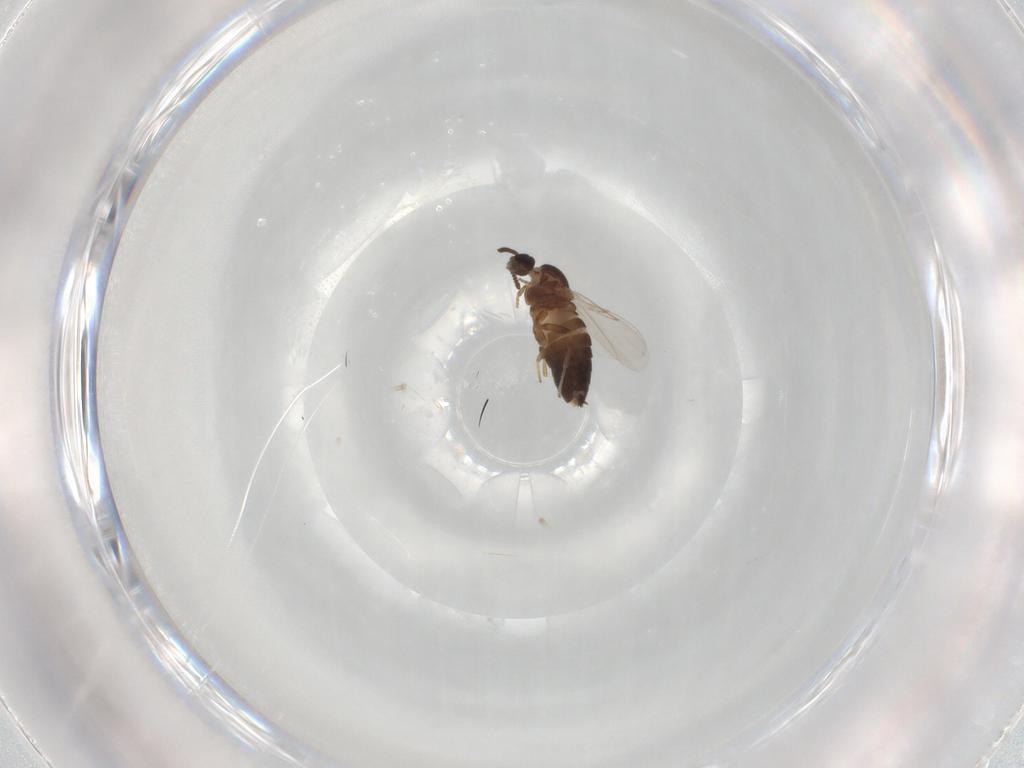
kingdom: Animalia
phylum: Arthropoda
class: Insecta
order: Diptera
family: Scatopsidae
